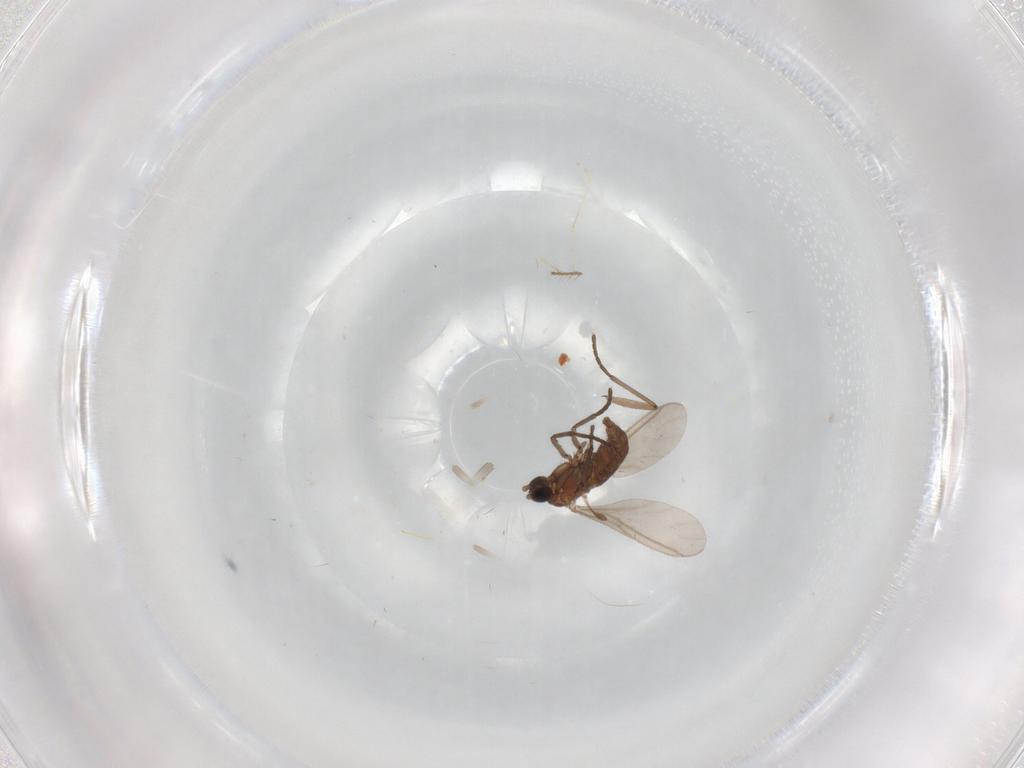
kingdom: Animalia
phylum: Arthropoda
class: Insecta
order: Diptera
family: Sciaridae
